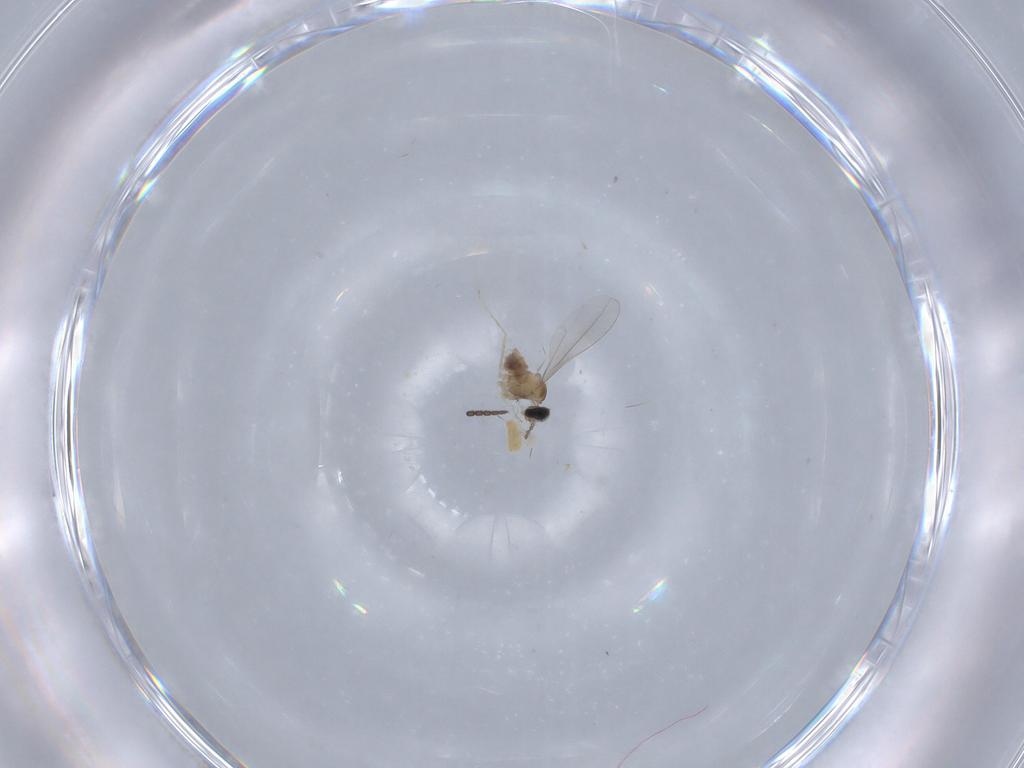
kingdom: Animalia
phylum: Arthropoda
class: Insecta
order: Diptera
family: Cecidomyiidae
